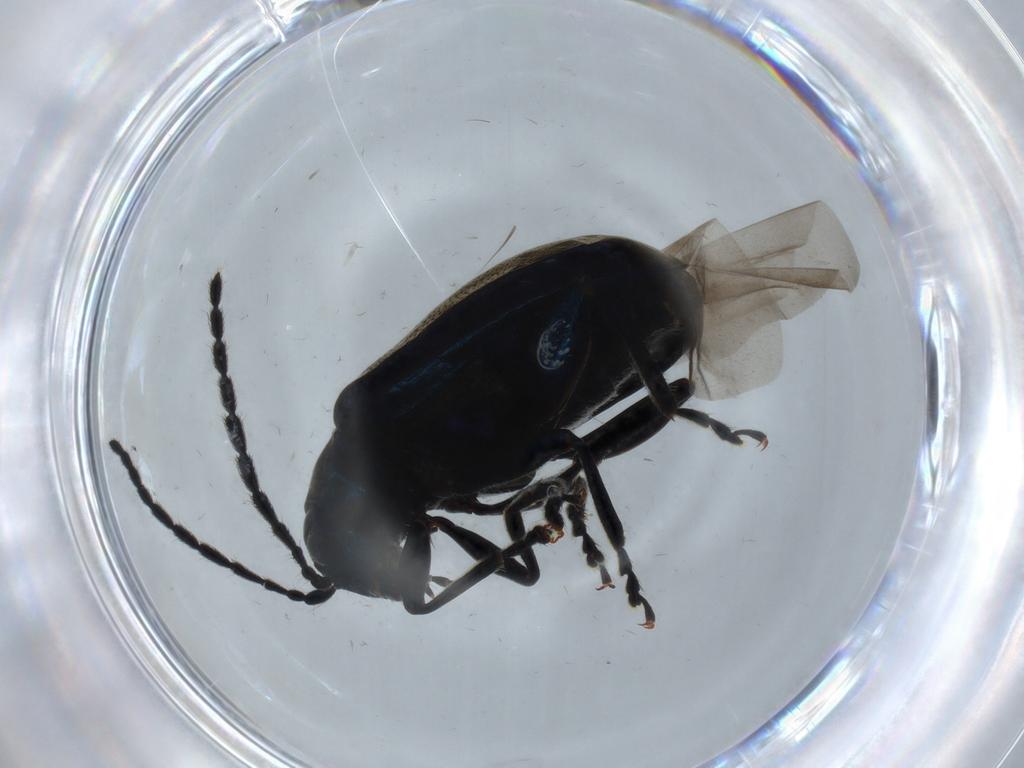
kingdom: Animalia
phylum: Arthropoda
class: Insecta
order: Coleoptera
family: Chrysomelidae
